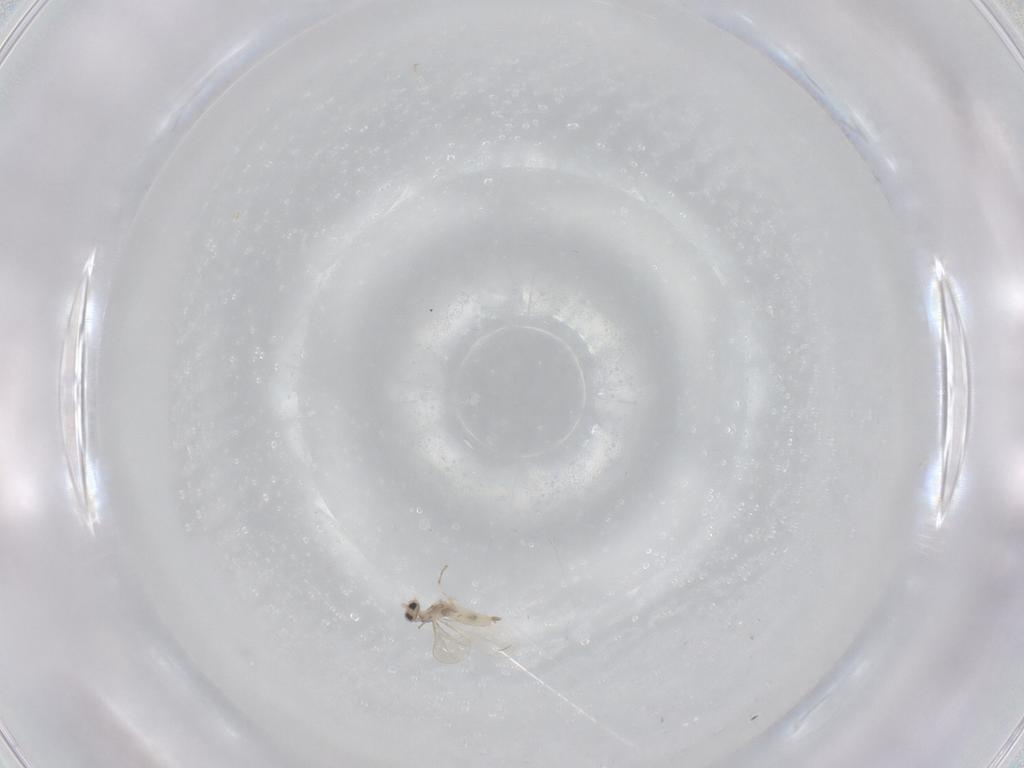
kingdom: Animalia
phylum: Arthropoda
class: Insecta
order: Diptera
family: Cecidomyiidae
